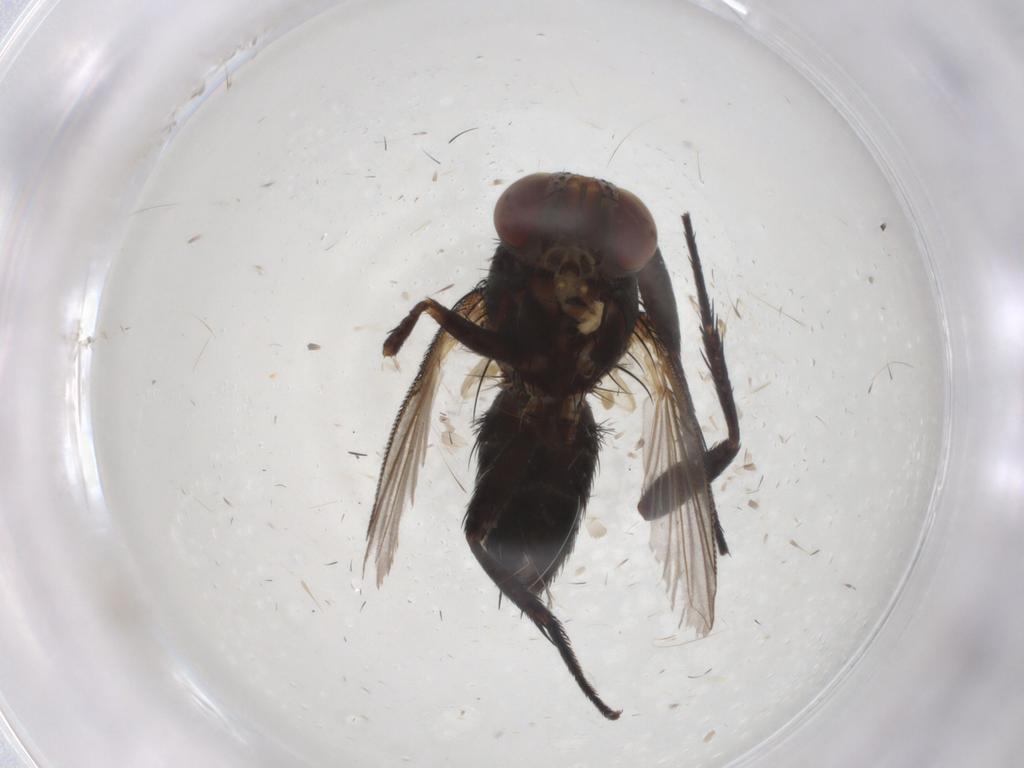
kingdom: Animalia
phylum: Arthropoda
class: Insecta
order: Diptera
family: Tachinidae
